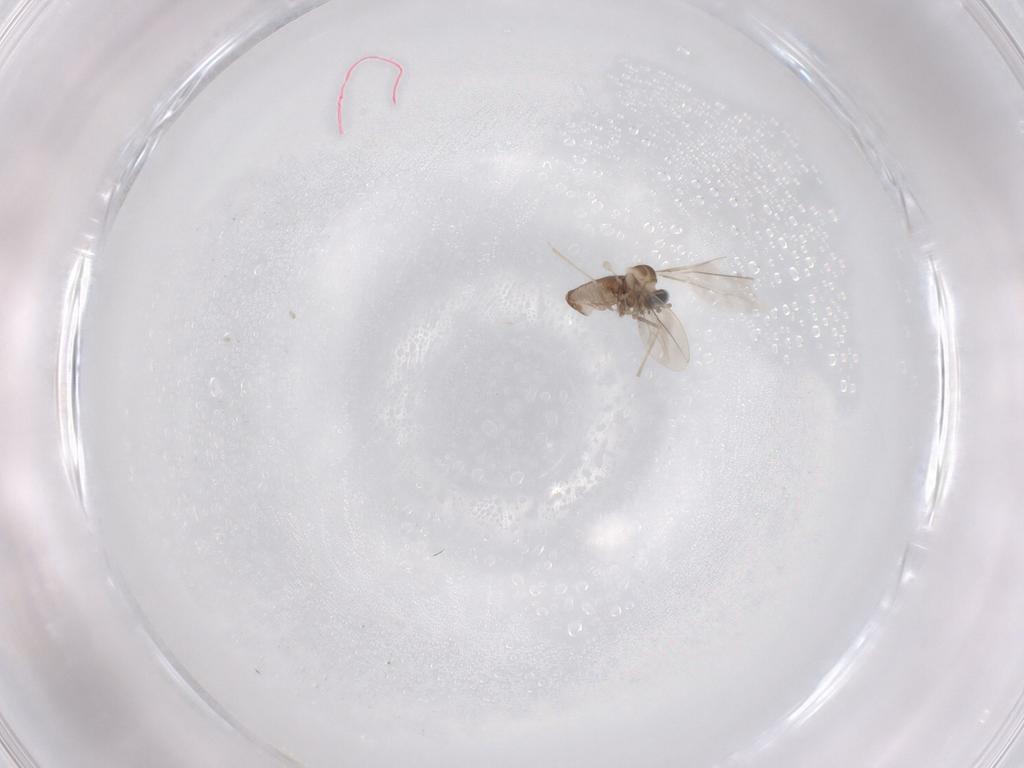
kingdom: Animalia
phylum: Arthropoda
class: Insecta
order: Diptera
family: Cecidomyiidae
